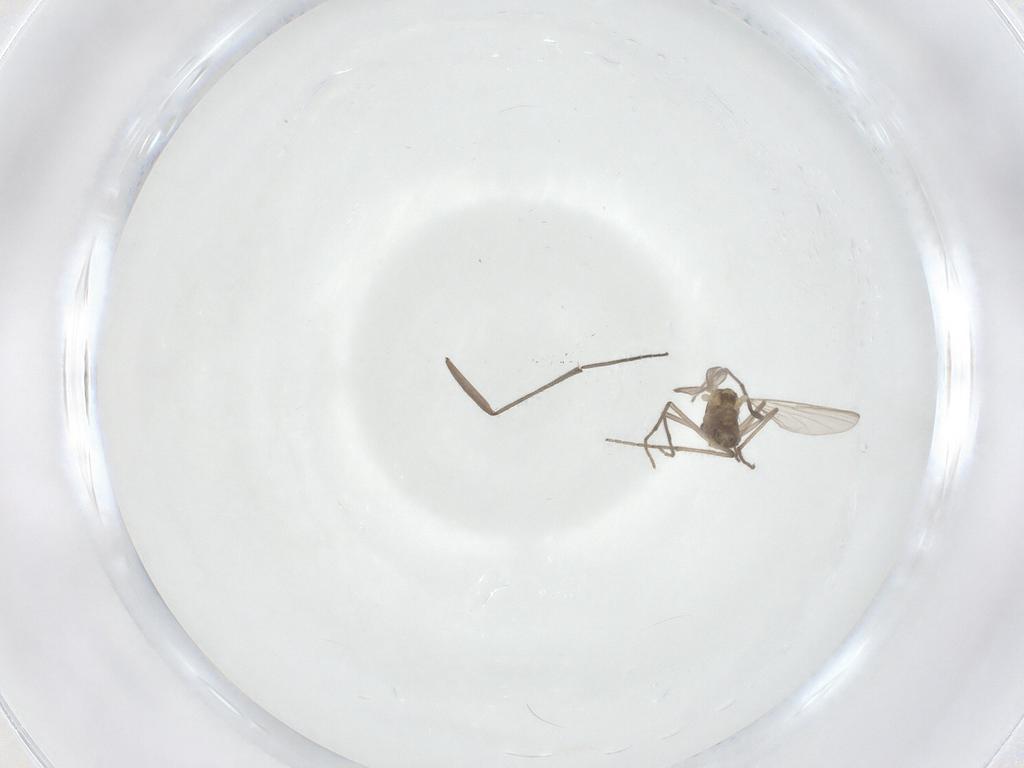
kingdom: Animalia
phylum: Arthropoda
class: Insecta
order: Diptera
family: Chironomidae
